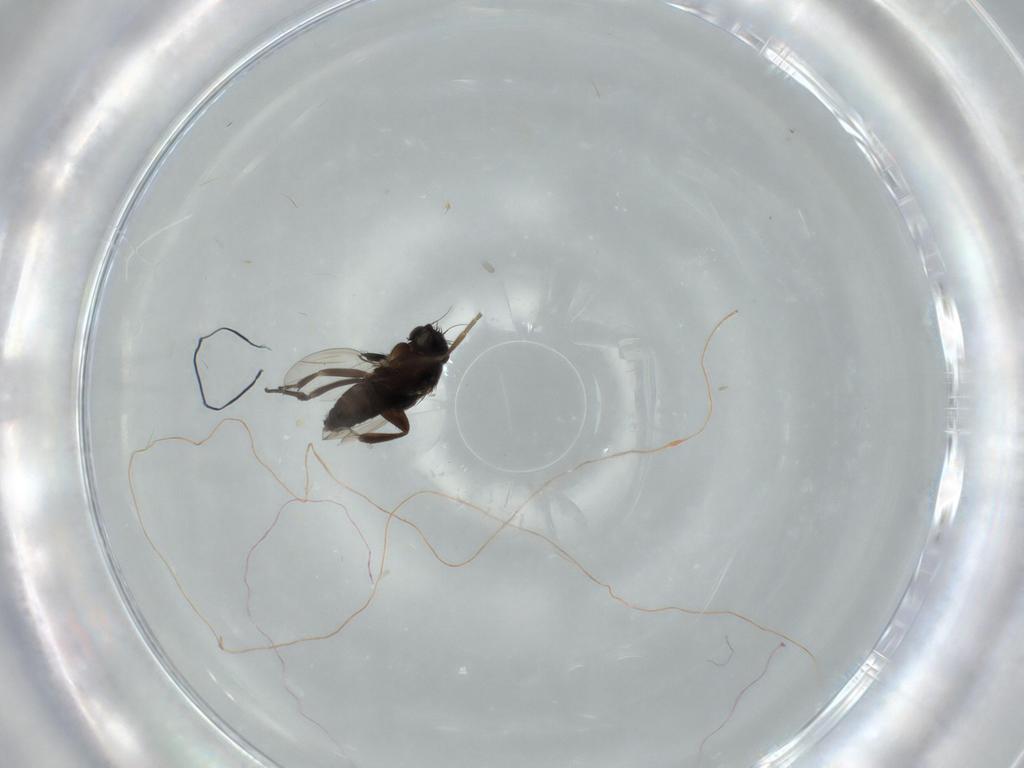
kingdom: Animalia
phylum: Arthropoda
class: Insecta
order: Diptera
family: Phoridae
